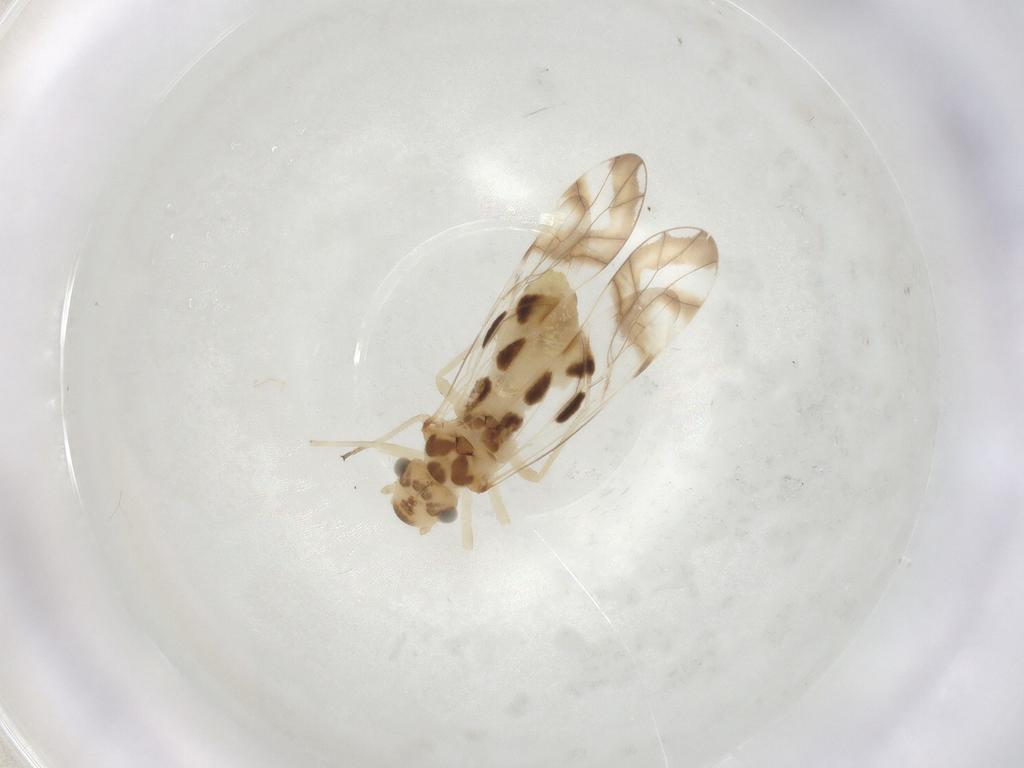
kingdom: Animalia
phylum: Arthropoda
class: Insecta
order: Psocodea
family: Stenopsocidae
